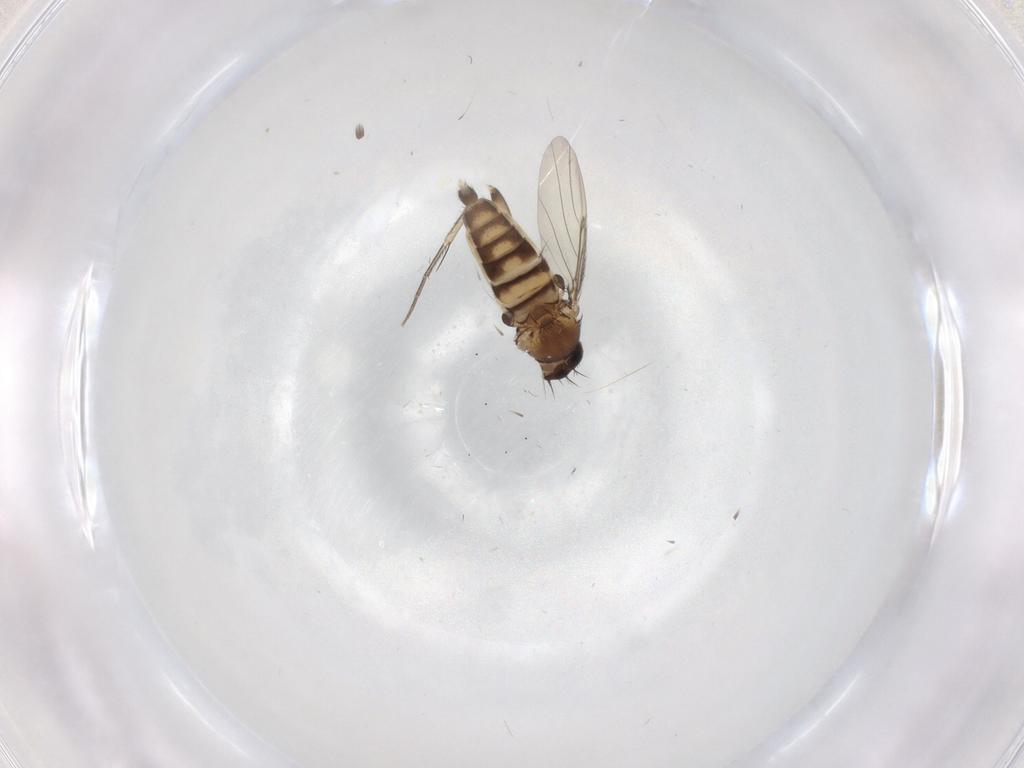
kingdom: Animalia
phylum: Arthropoda
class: Insecta
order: Diptera
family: Phoridae
